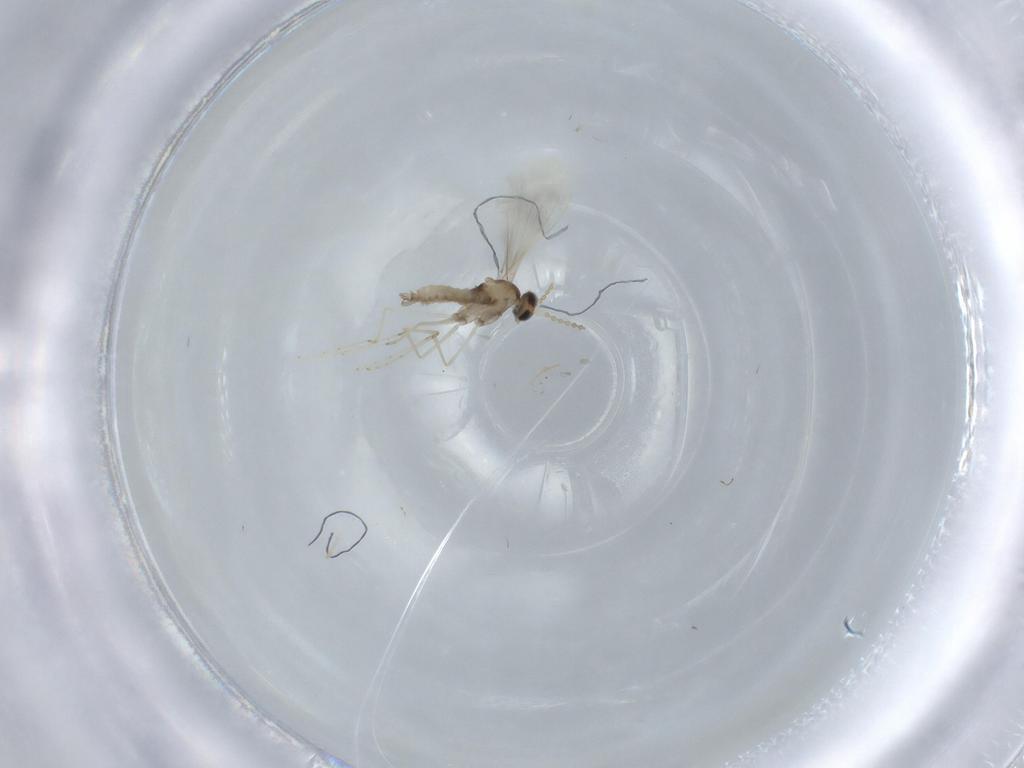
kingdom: Animalia
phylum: Arthropoda
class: Insecta
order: Diptera
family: Cecidomyiidae
